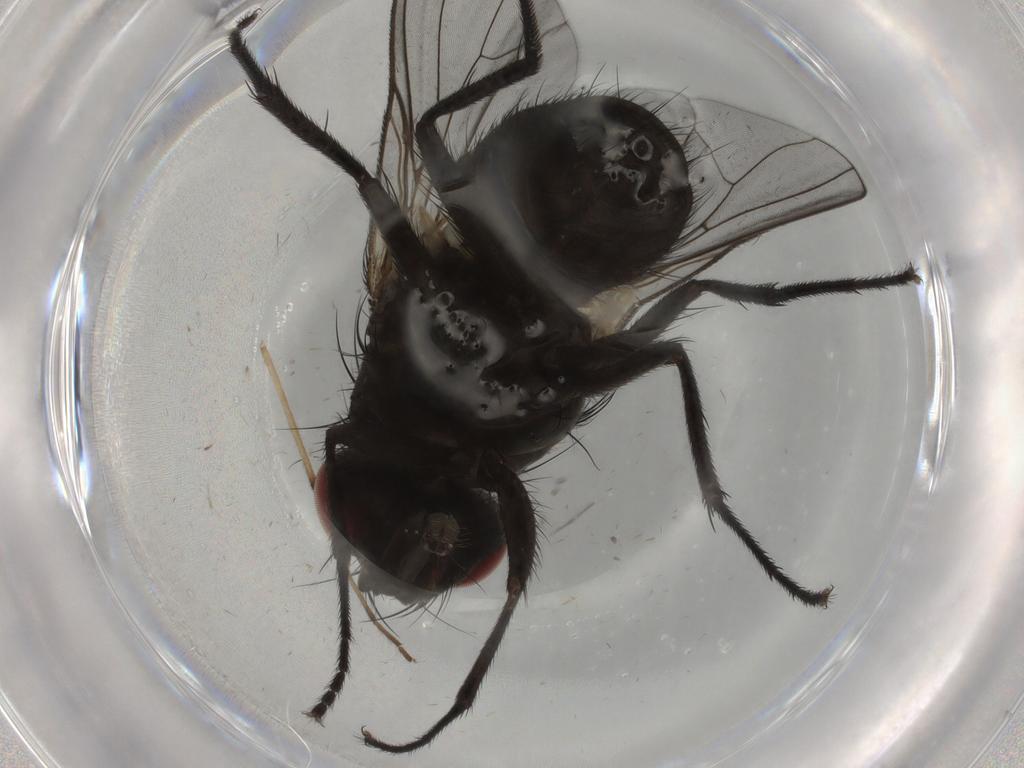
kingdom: Animalia
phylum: Arthropoda
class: Insecta
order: Diptera
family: Muscidae
